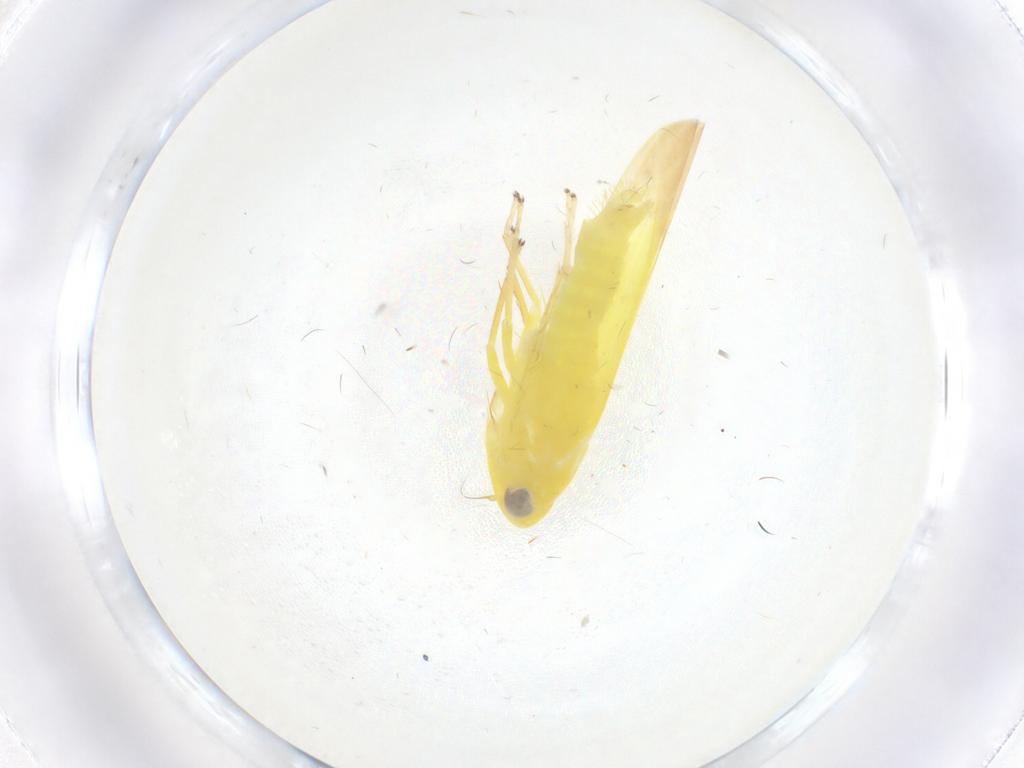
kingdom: Animalia
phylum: Arthropoda
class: Insecta
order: Hemiptera
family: Cicadellidae
